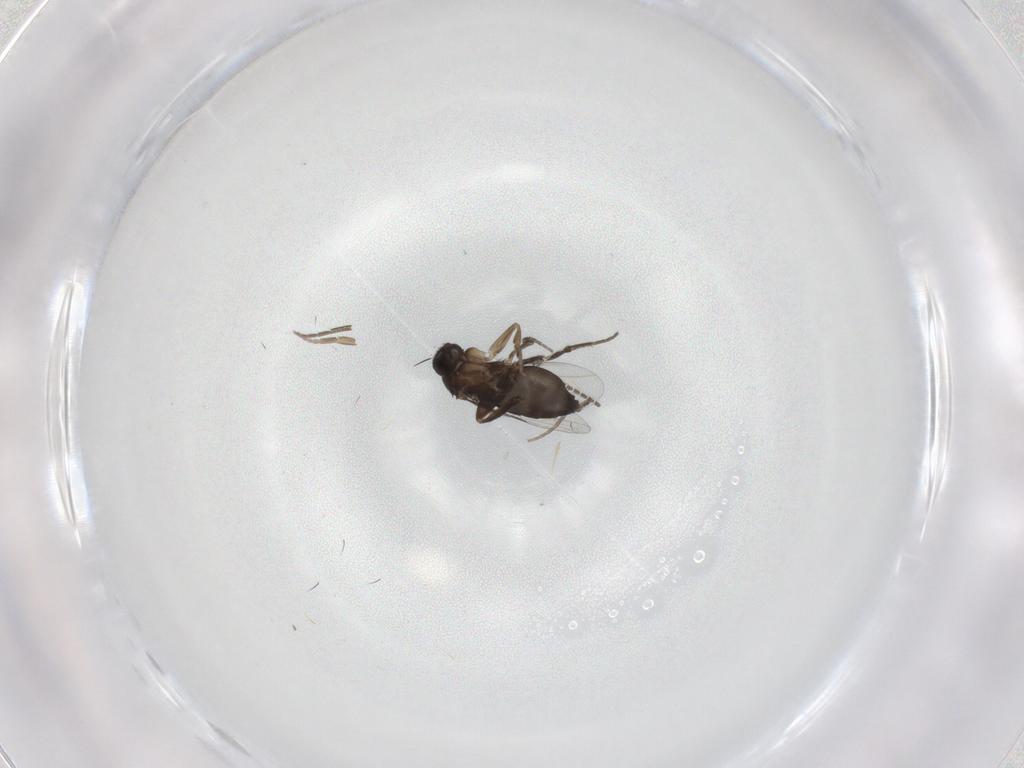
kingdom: Animalia
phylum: Arthropoda
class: Insecta
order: Diptera
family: Phoridae
